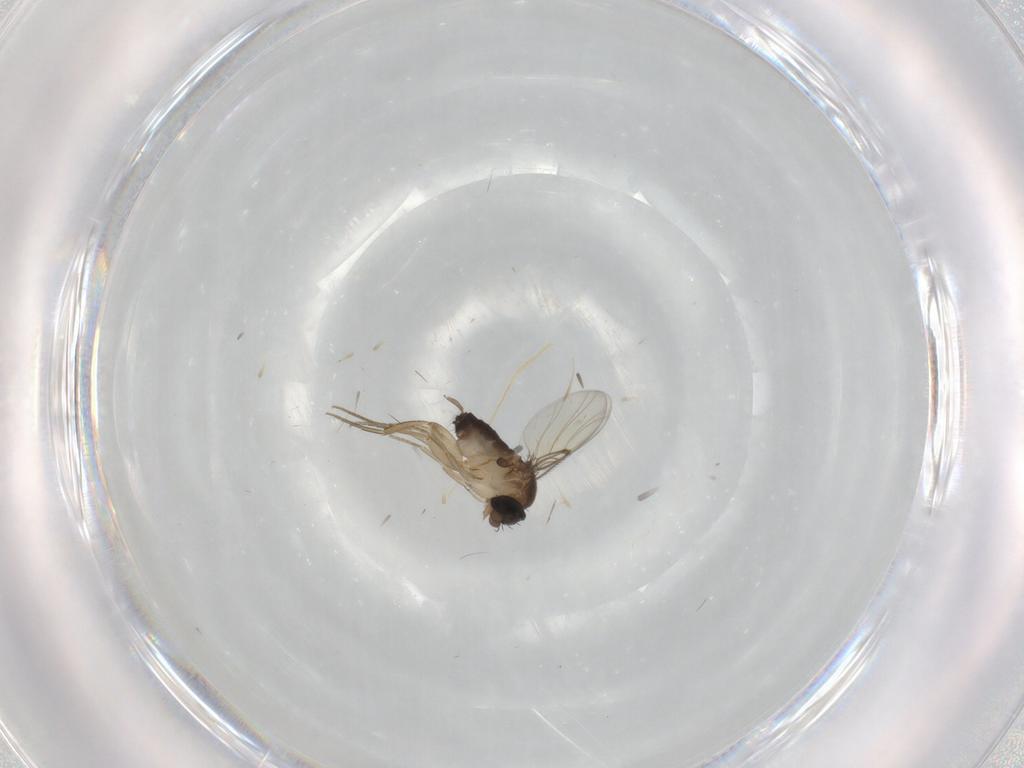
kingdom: Animalia
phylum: Arthropoda
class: Insecta
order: Diptera
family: Phoridae
